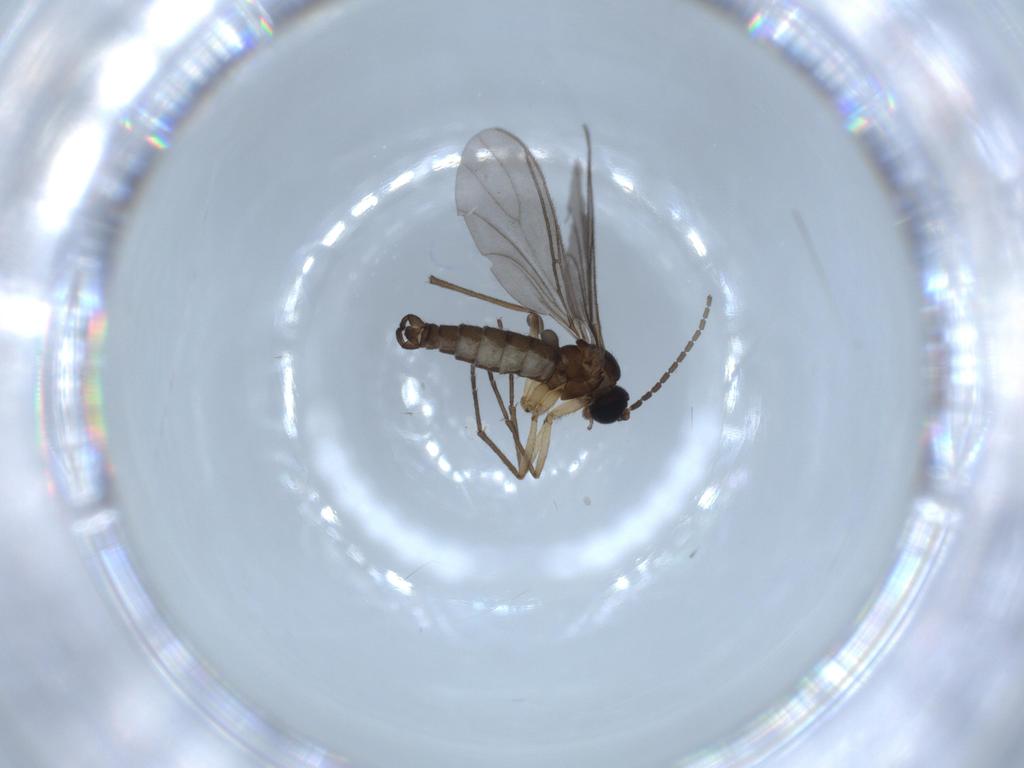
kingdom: Animalia
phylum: Arthropoda
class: Insecta
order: Diptera
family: Sciaridae
